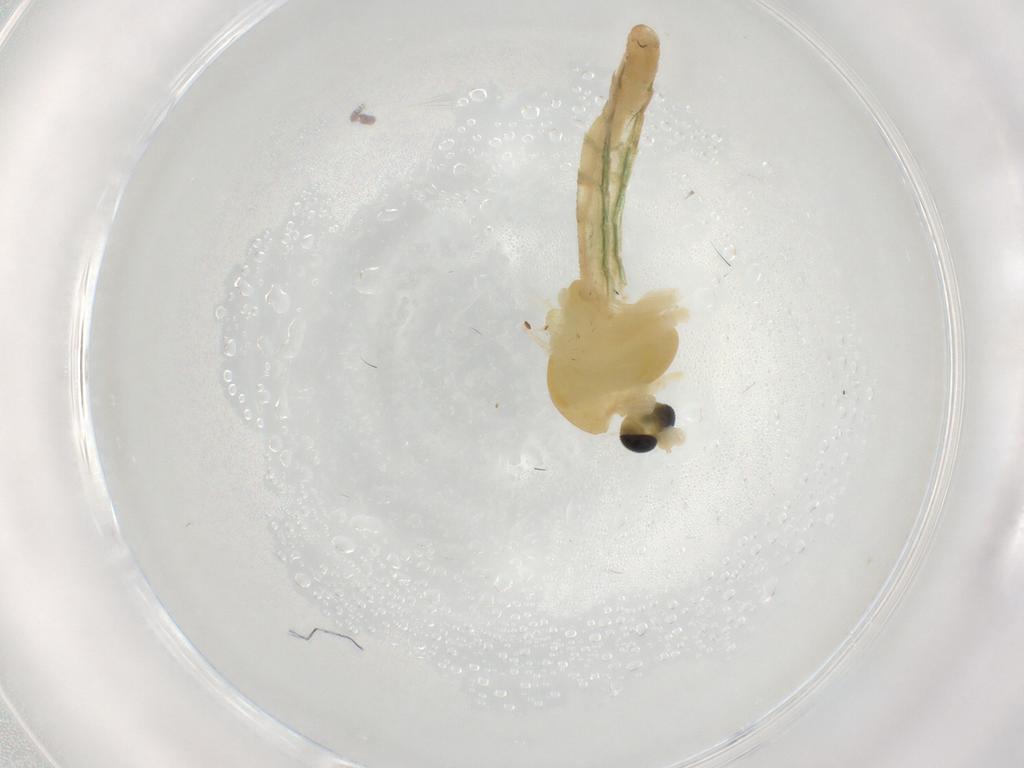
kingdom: Animalia
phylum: Arthropoda
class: Insecta
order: Diptera
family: Chironomidae
